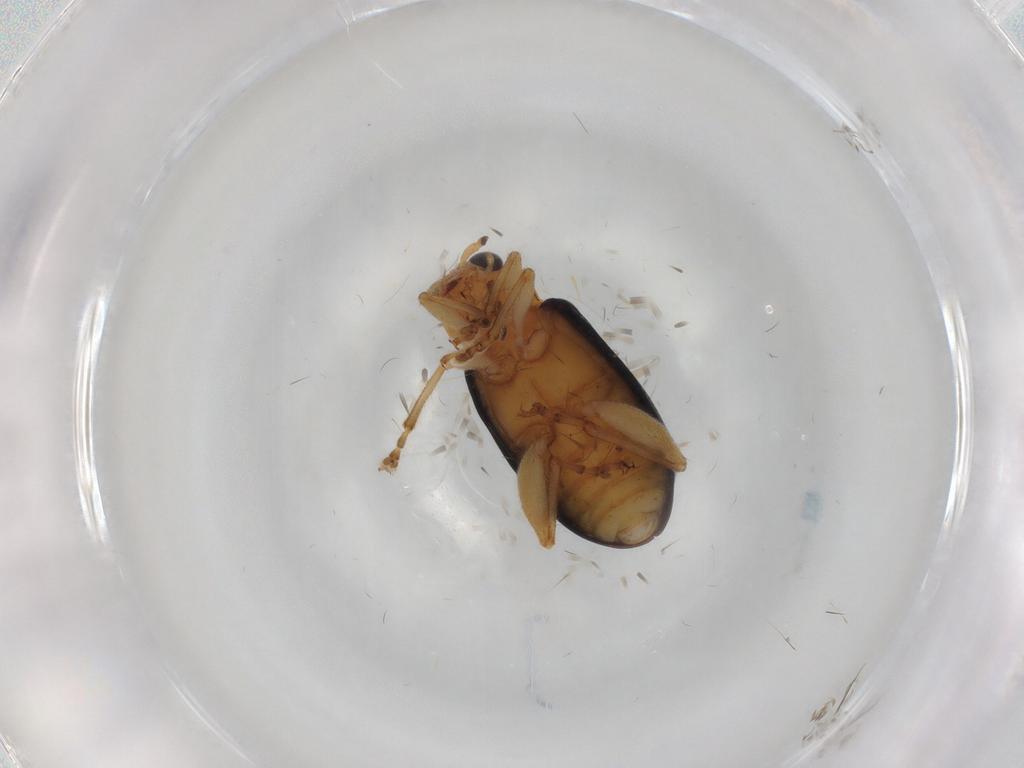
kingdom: Animalia
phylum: Arthropoda
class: Insecta
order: Coleoptera
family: Chrysomelidae
